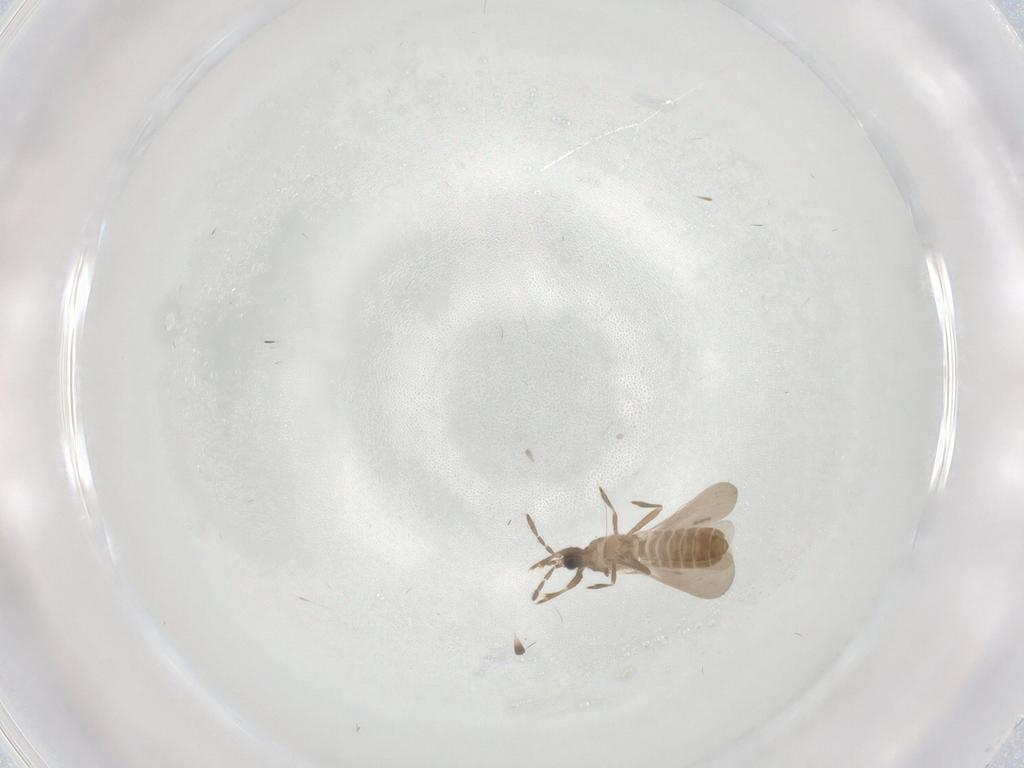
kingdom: Animalia
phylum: Arthropoda
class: Insecta
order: Hemiptera
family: Enicocephalidae
